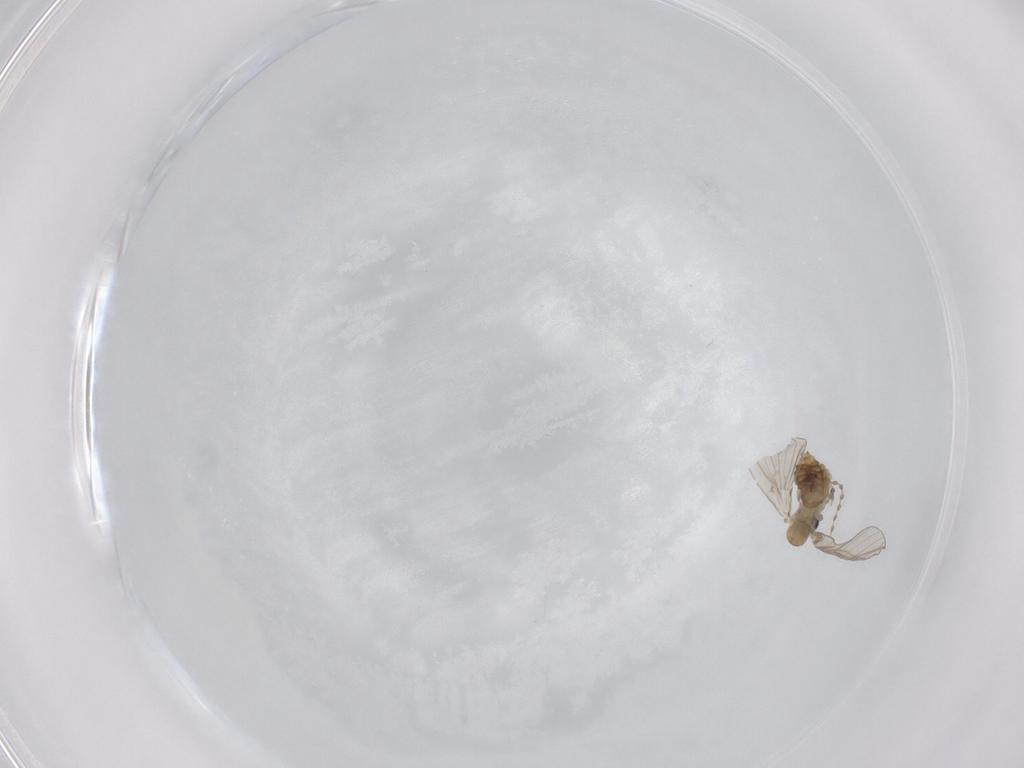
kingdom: Animalia
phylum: Arthropoda
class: Insecta
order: Diptera
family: Psychodidae
